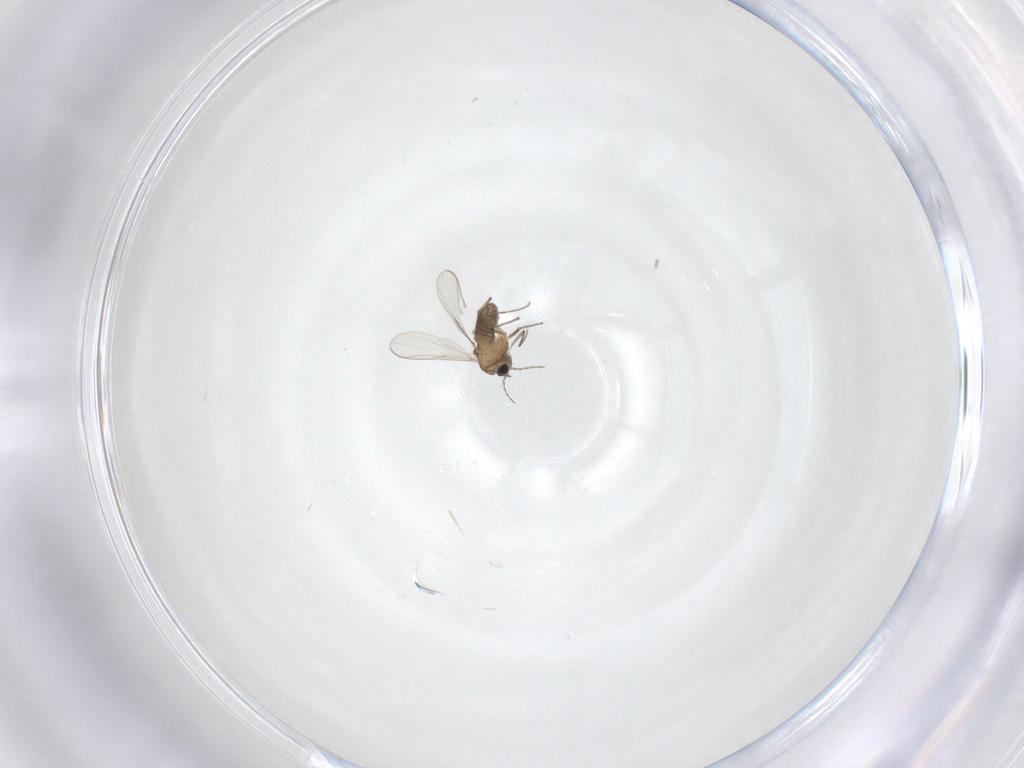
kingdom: Animalia
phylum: Arthropoda
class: Insecta
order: Diptera
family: Chironomidae
